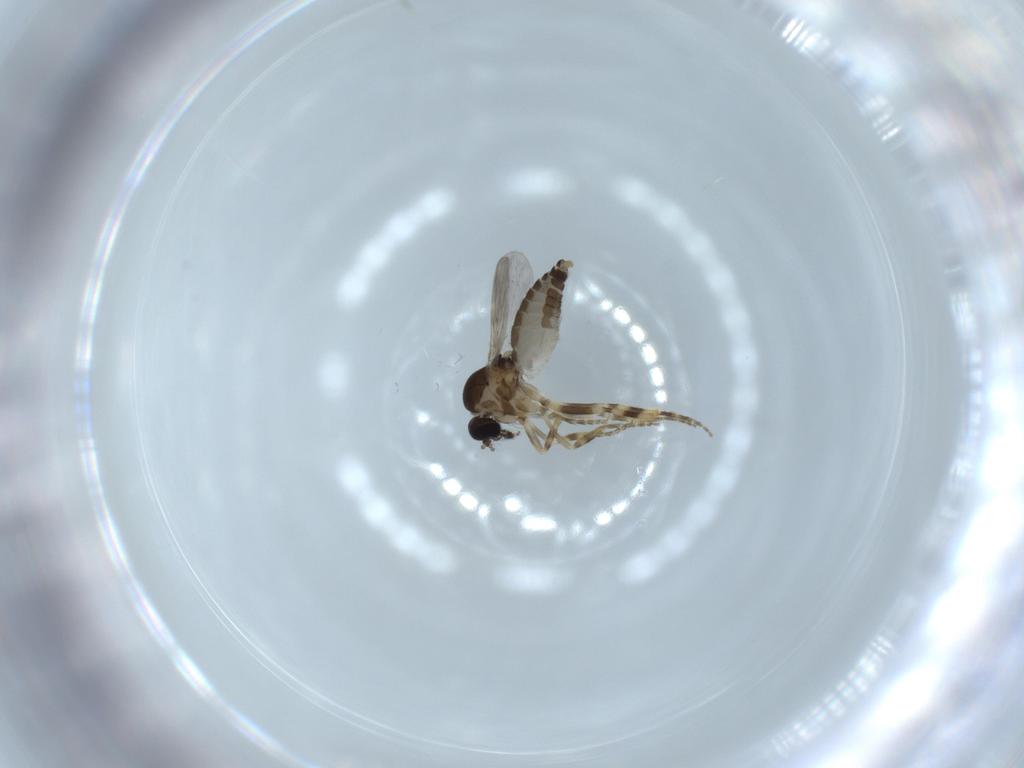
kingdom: Animalia
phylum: Arthropoda
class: Insecta
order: Diptera
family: Psychodidae
